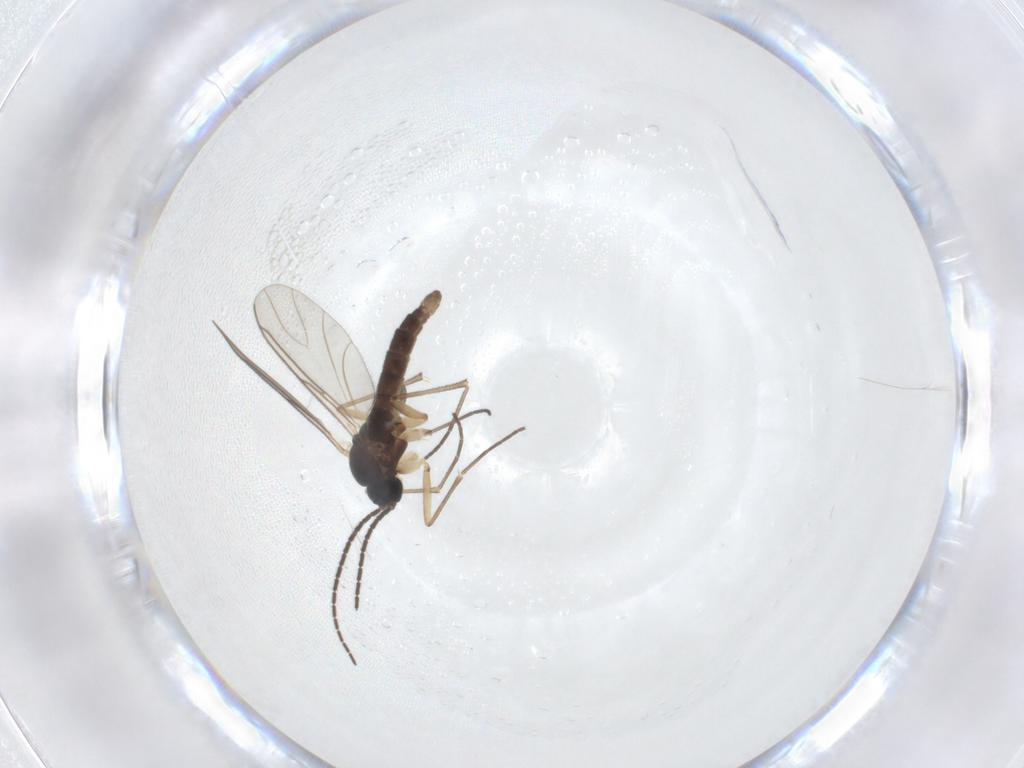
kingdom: Animalia
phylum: Arthropoda
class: Insecta
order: Diptera
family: Sciaridae
